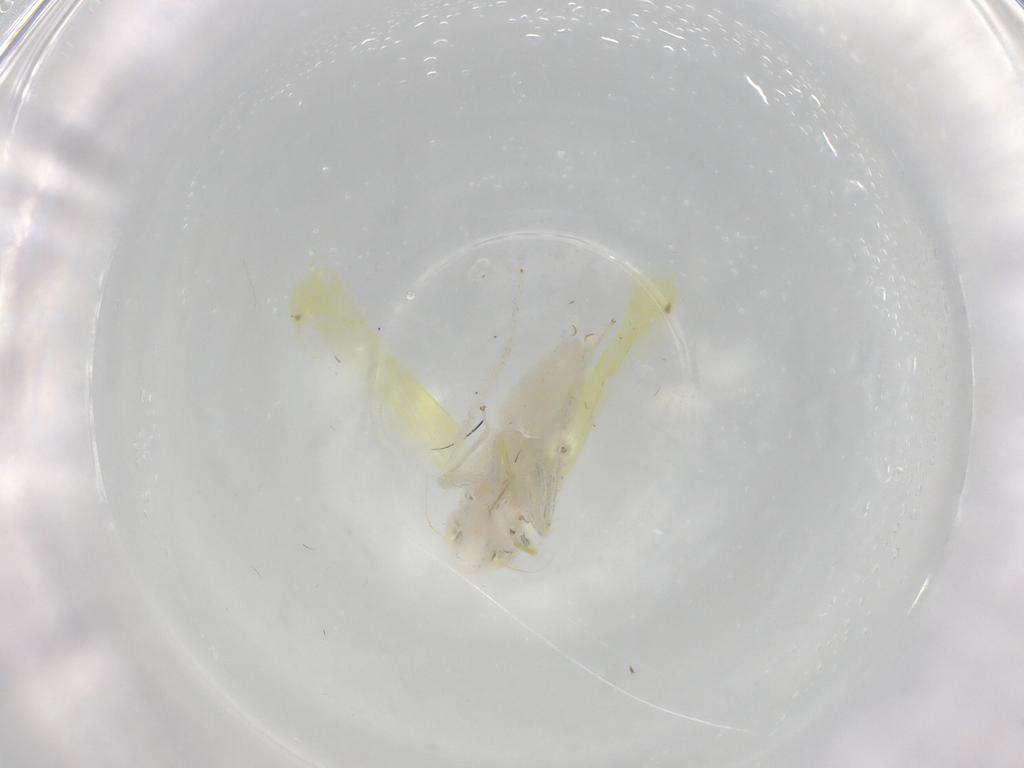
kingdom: Animalia
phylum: Arthropoda
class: Insecta
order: Hemiptera
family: Cicadellidae
